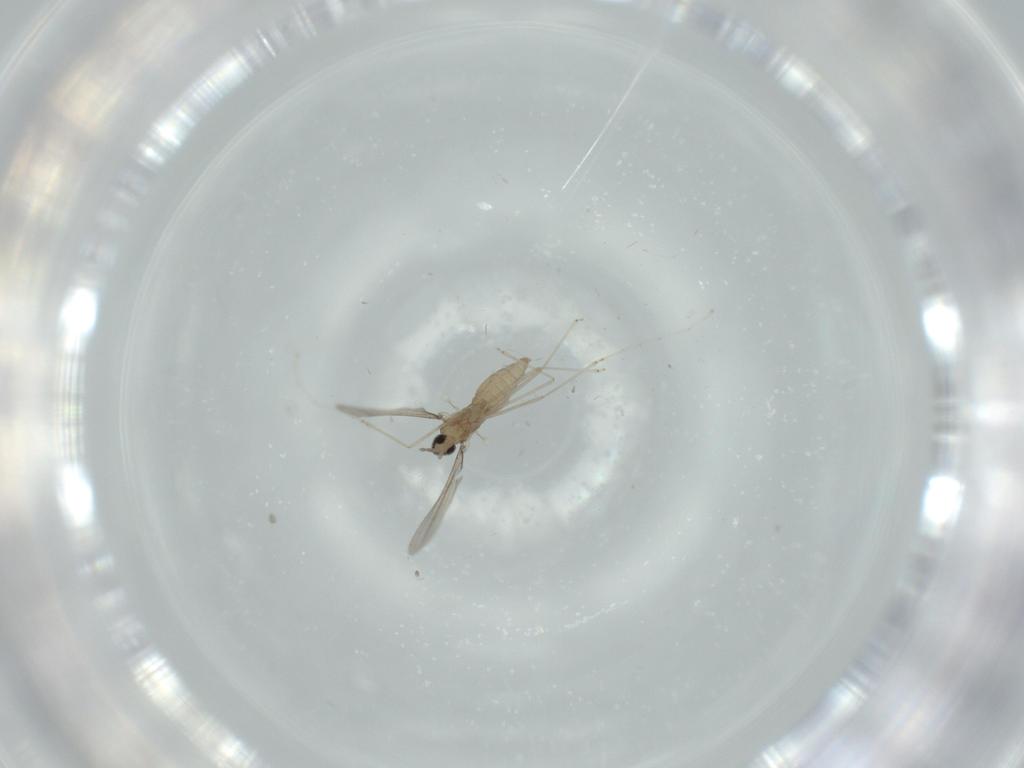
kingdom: Animalia
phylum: Arthropoda
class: Insecta
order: Diptera
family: Cecidomyiidae
